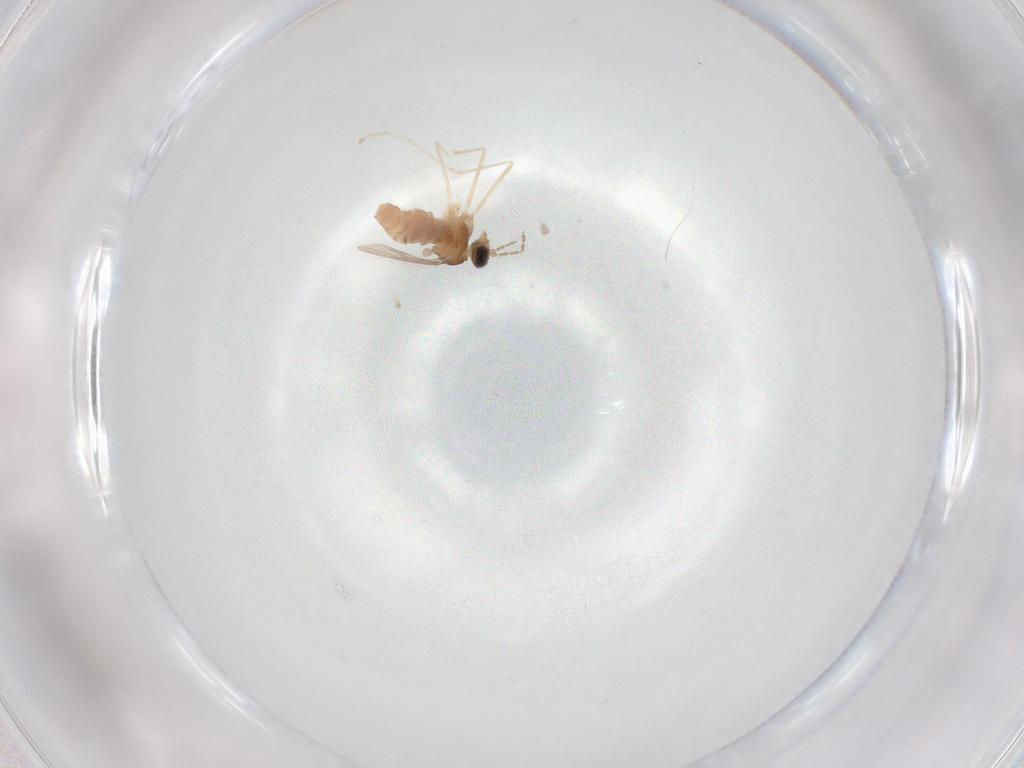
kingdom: Animalia
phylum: Arthropoda
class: Insecta
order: Diptera
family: Cecidomyiidae
